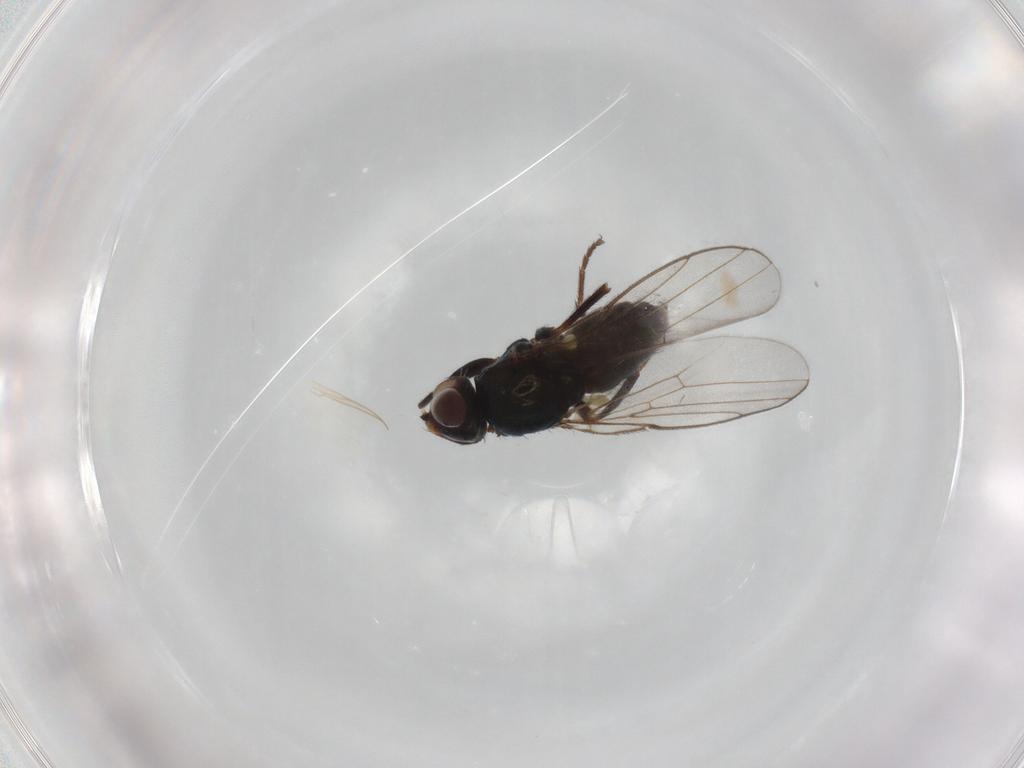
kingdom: Animalia
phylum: Arthropoda
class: Insecta
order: Diptera
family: Chloropidae
